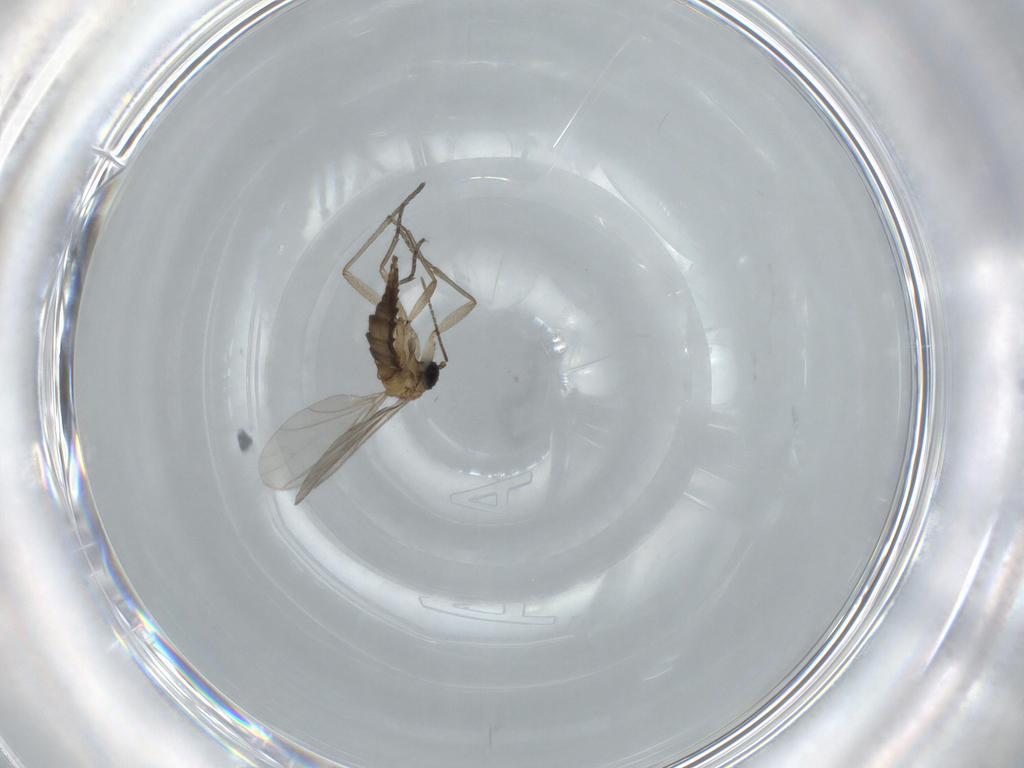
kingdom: Animalia
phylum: Arthropoda
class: Insecta
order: Diptera
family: Sciaridae
